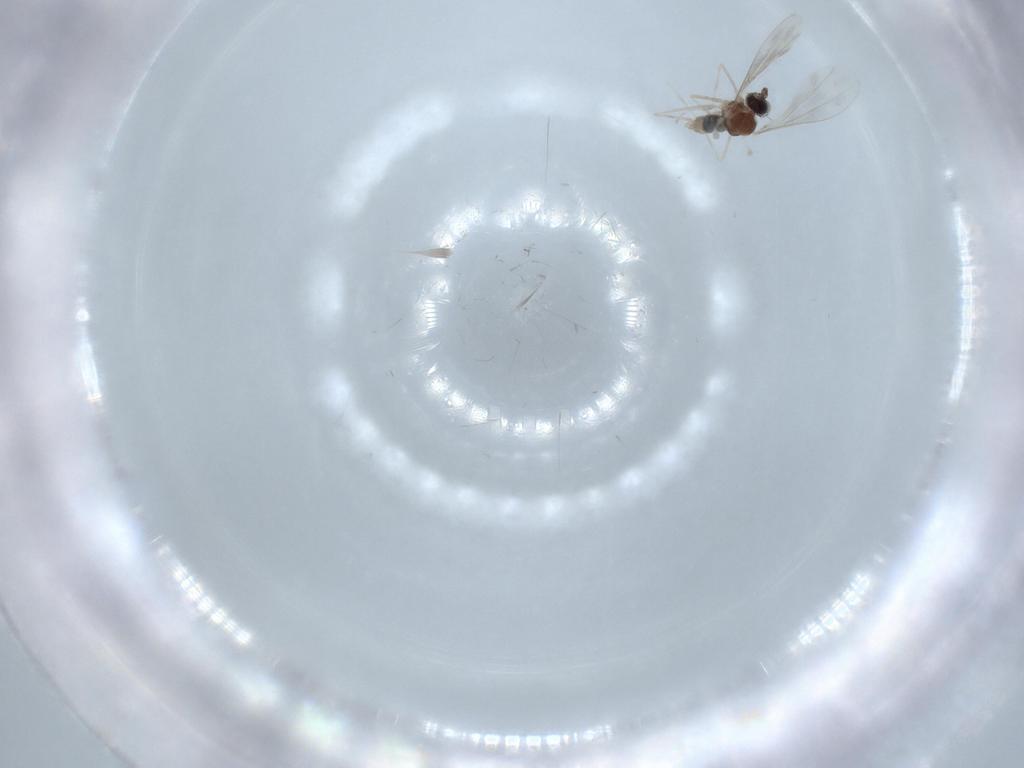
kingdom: Animalia
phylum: Arthropoda
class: Insecta
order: Diptera
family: Cecidomyiidae
